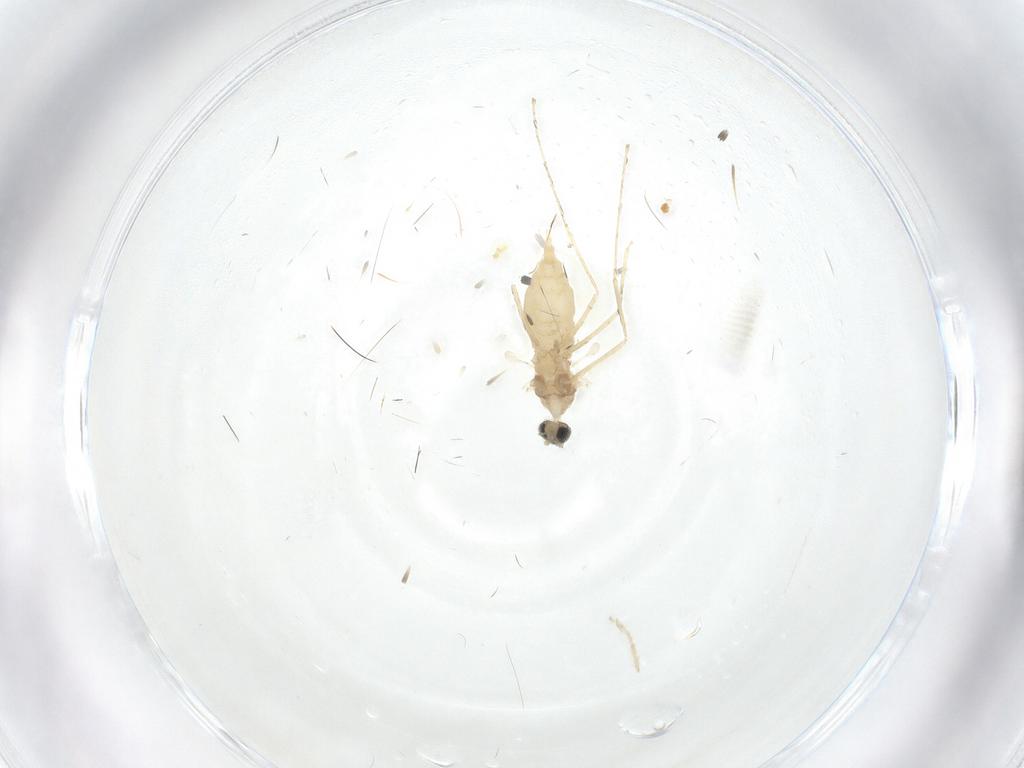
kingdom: Animalia
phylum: Arthropoda
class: Insecta
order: Diptera
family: Cecidomyiidae
